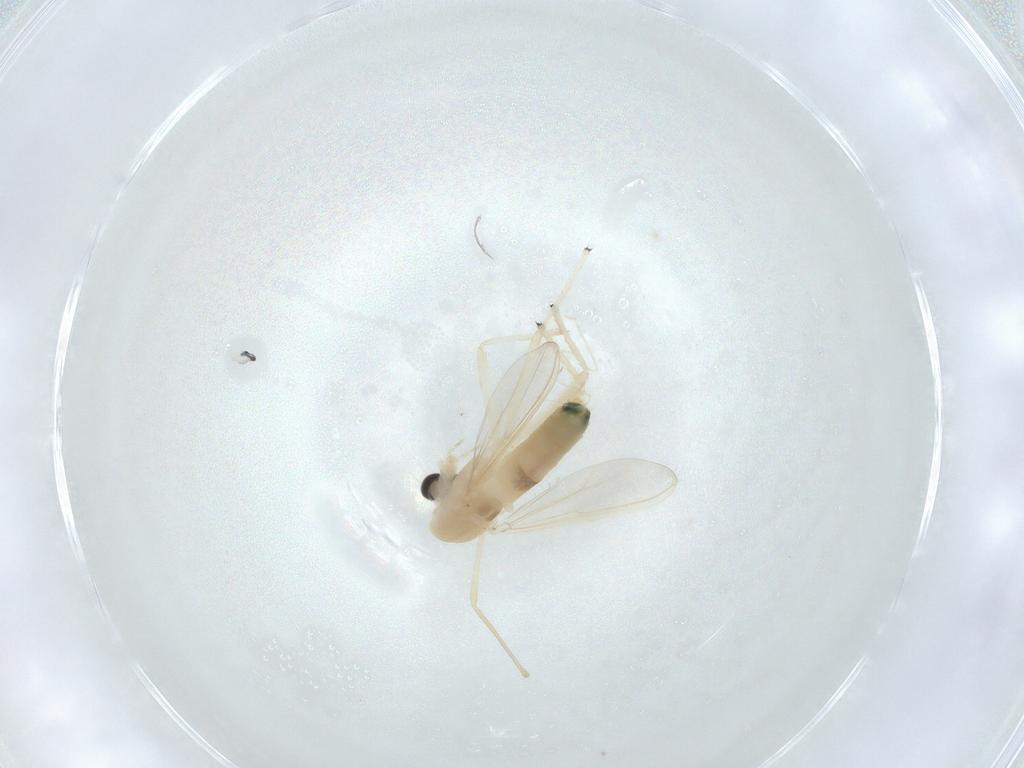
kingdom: Animalia
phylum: Arthropoda
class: Insecta
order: Diptera
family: Chironomidae
